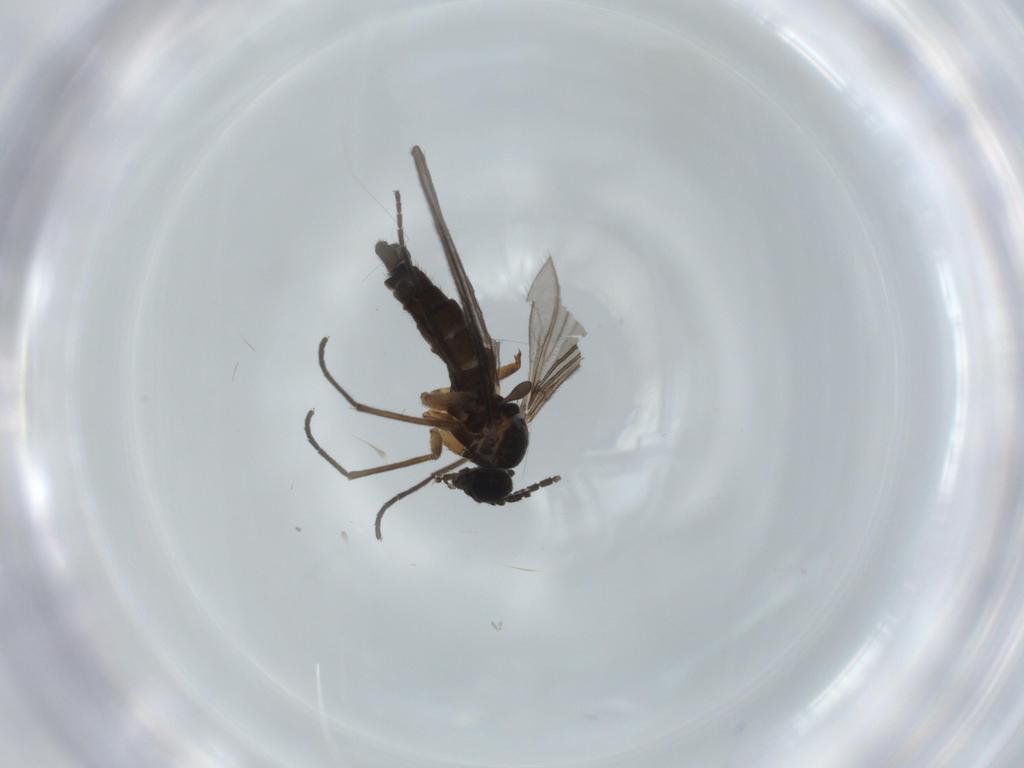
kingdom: Animalia
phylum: Arthropoda
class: Insecta
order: Diptera
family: Sciaridae
